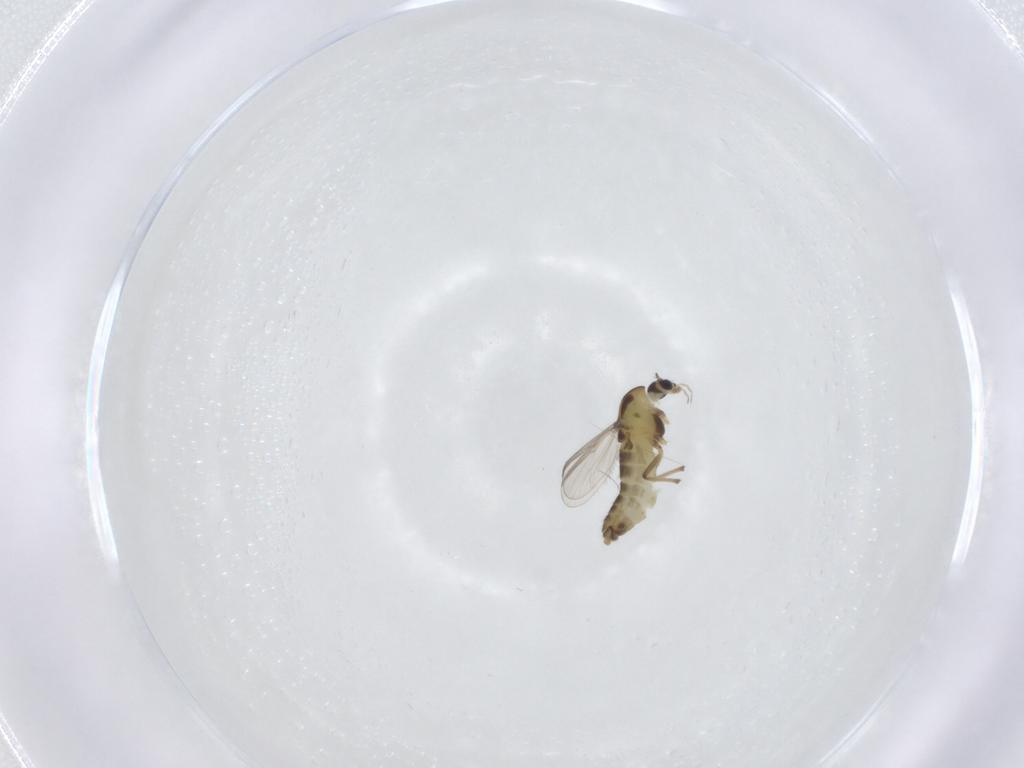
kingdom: Animalia
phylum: Arthropoda
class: Insecta
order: Diptera
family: Chironomidae
